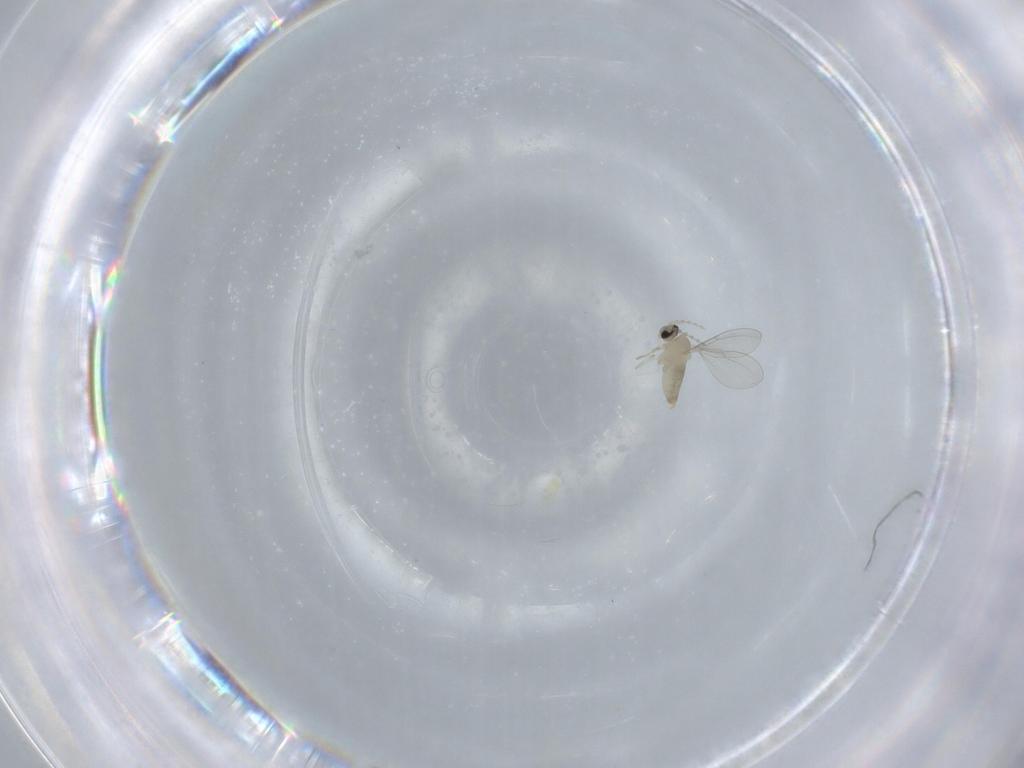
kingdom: Animalia
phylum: Arthropoda
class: Insecta
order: Diptera
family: Cecidomyiidae
